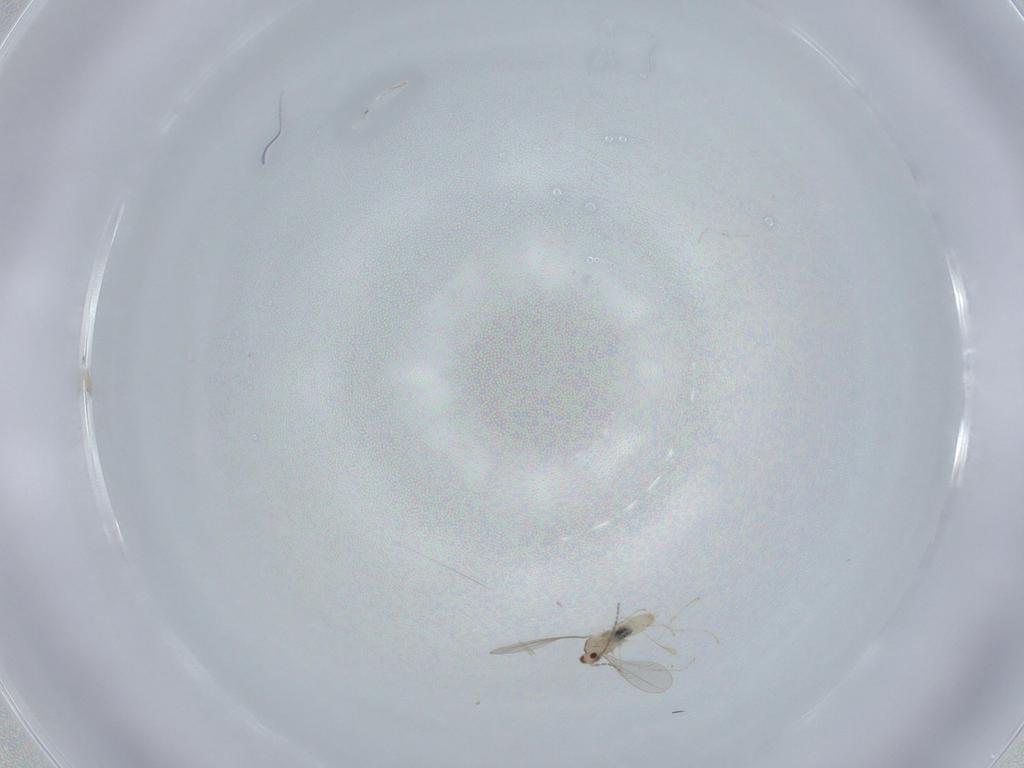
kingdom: Animalia
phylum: Arthropoda
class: Insecta
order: Diptera
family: Cecidomyiidae
